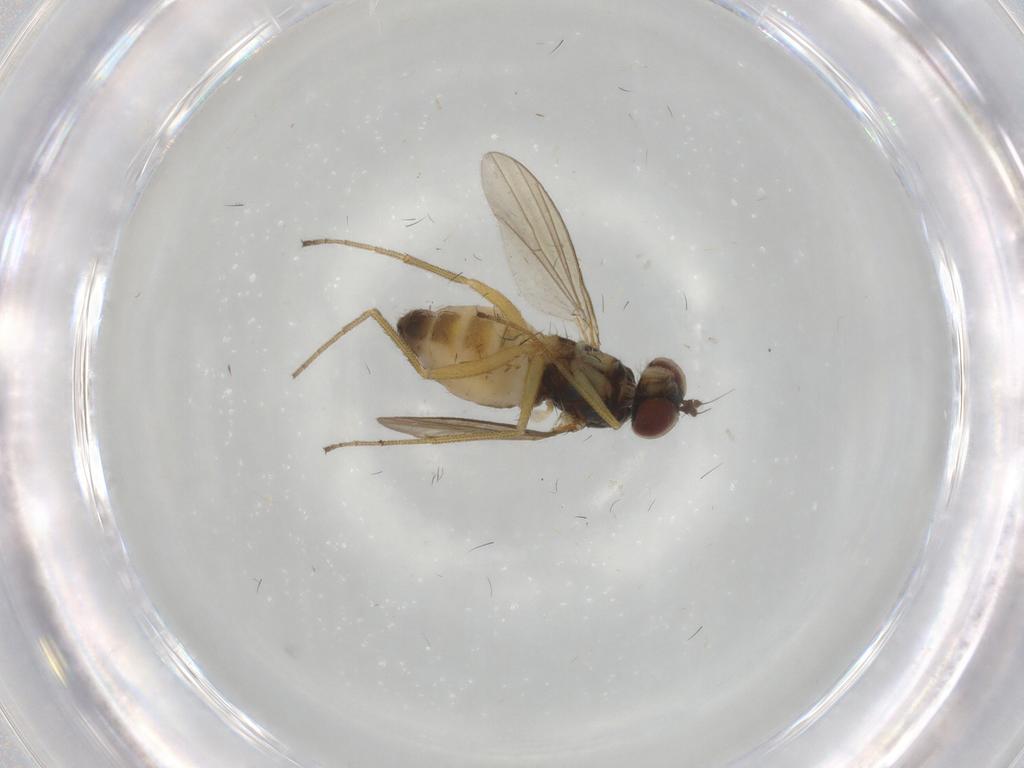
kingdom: Animalia
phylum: Arthropoda
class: Insecta
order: Diptera
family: Dolichopodidae
